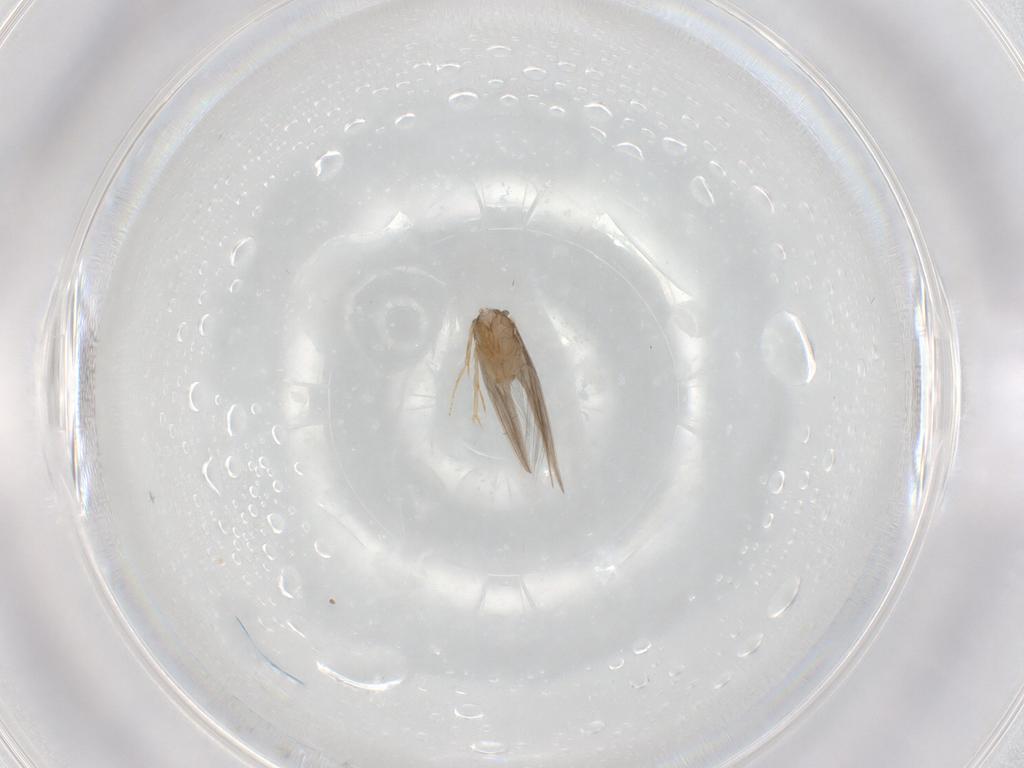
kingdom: Animalia
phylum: Arthropoda
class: Insecta
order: Trichoptera
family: Hydroptilidae
